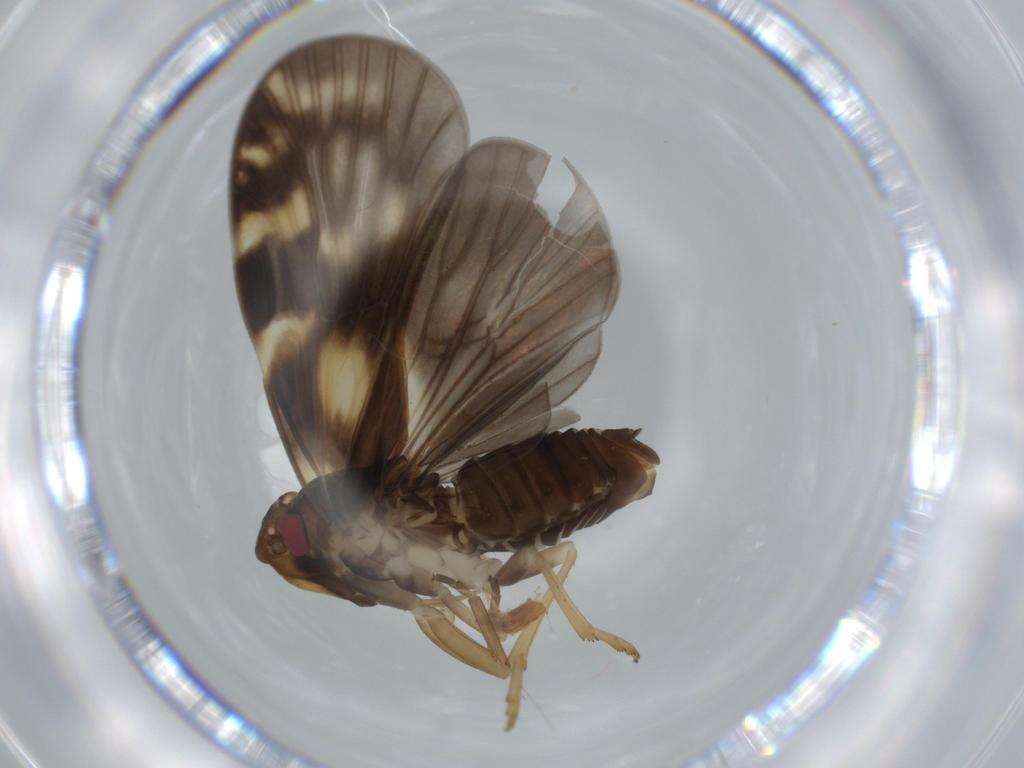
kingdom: Animalia
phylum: Arthropoda
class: Insecta
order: Hemiptera
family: Cixiidae
